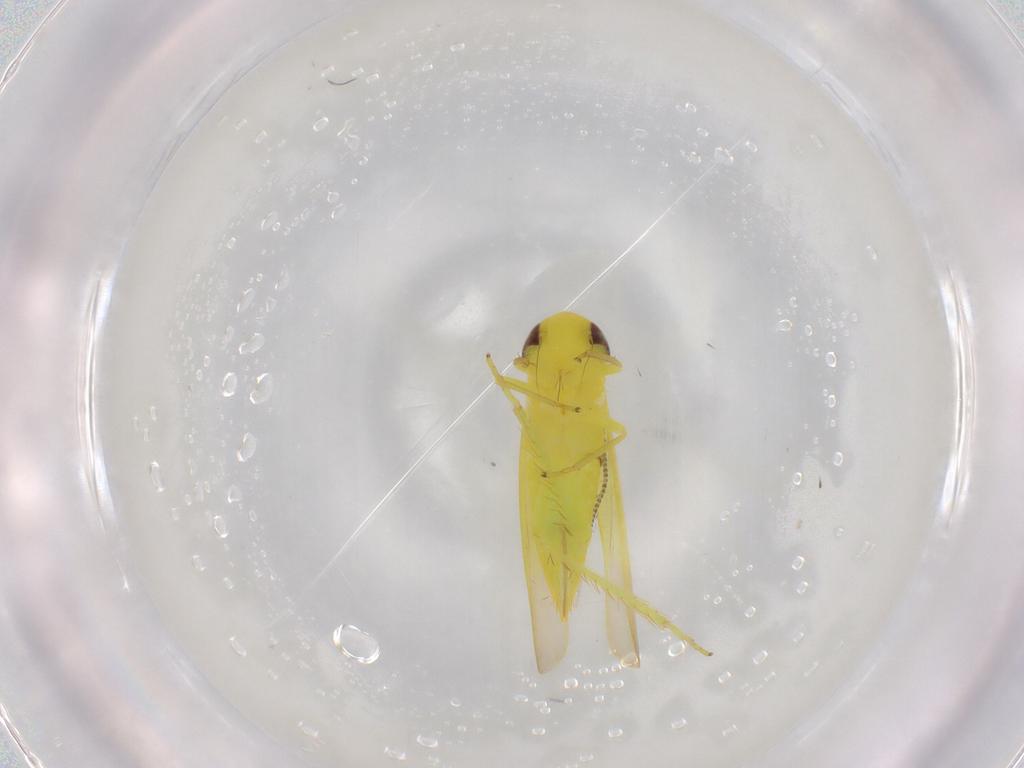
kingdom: Animalia
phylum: Arthropoda
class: Insecta
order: Hemiptera
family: Cicadellidae
